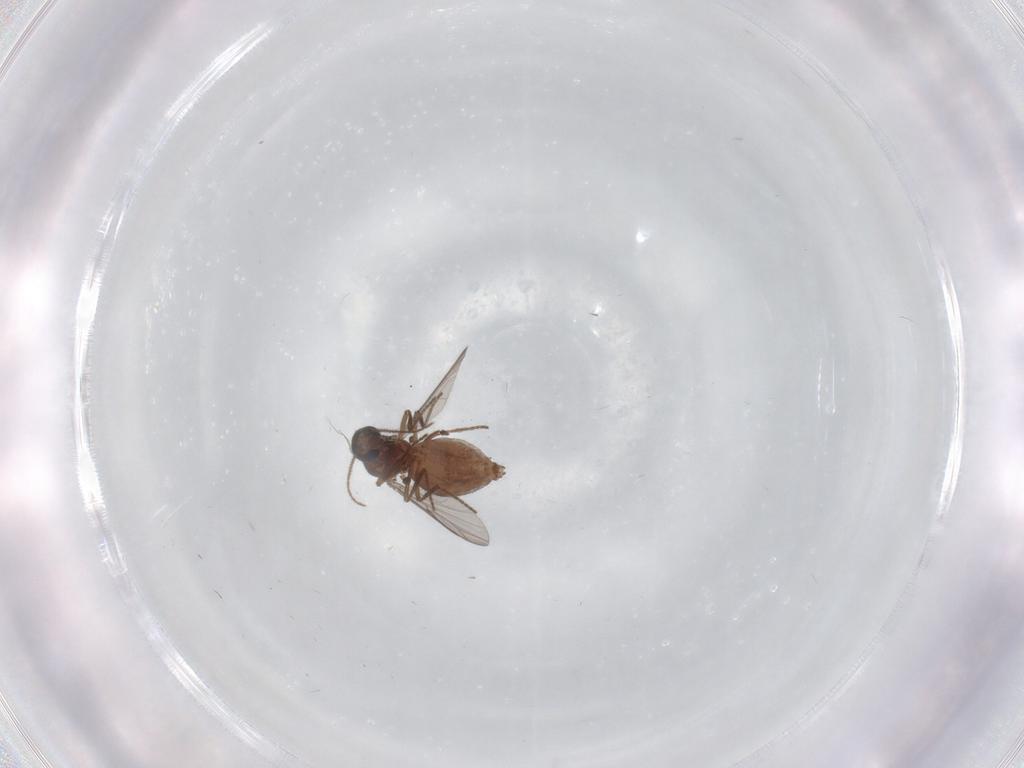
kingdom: Animalia
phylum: Arthropoda
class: Insecta
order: Diptera
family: Ceratopogonidae
